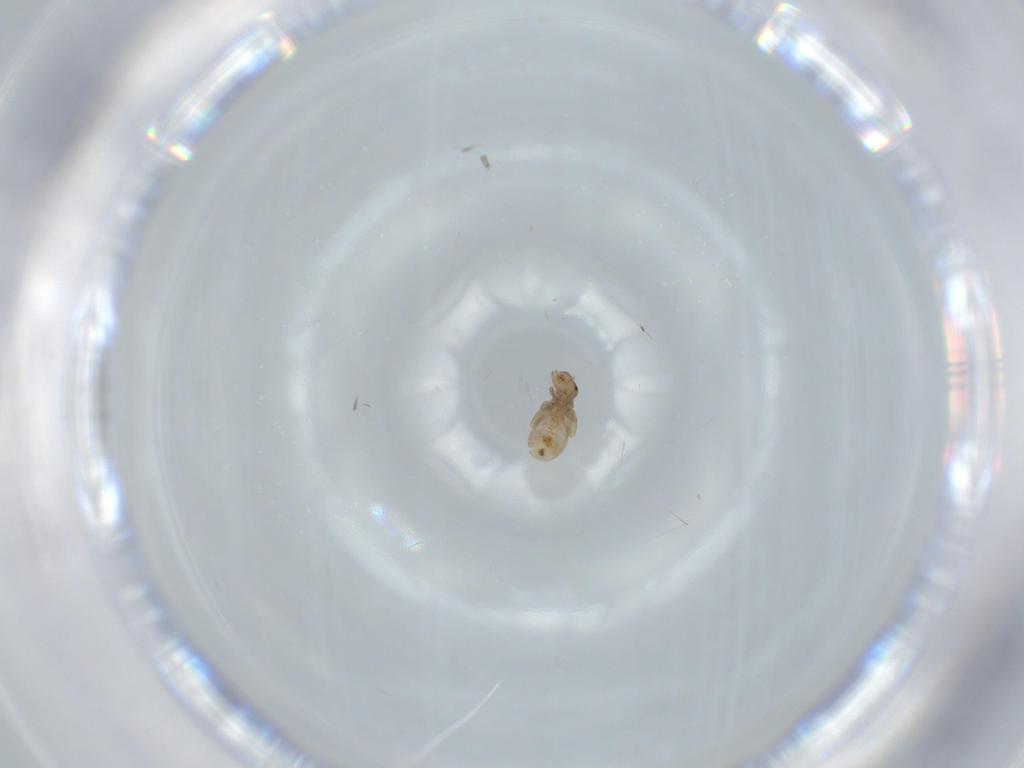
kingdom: Animalia
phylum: Arthropoda
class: Insecta
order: Psocodea
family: Liposcelididae
